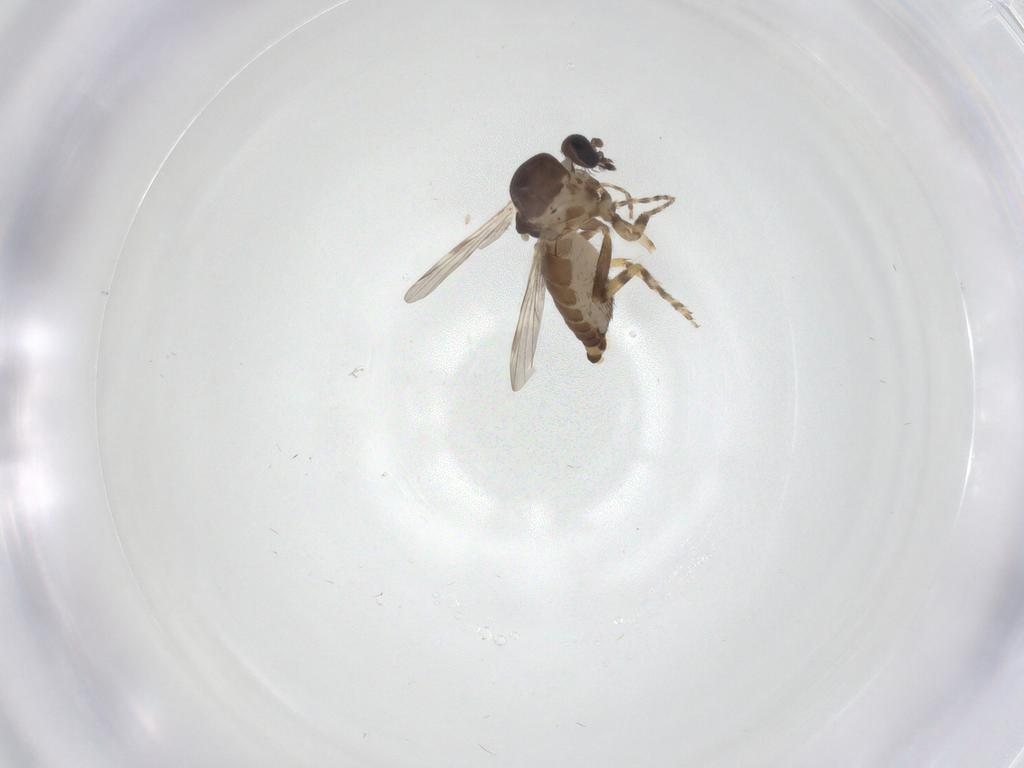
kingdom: Animalia
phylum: Arthropoda
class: Insecta
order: Diptera
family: Ceratopogonidae
